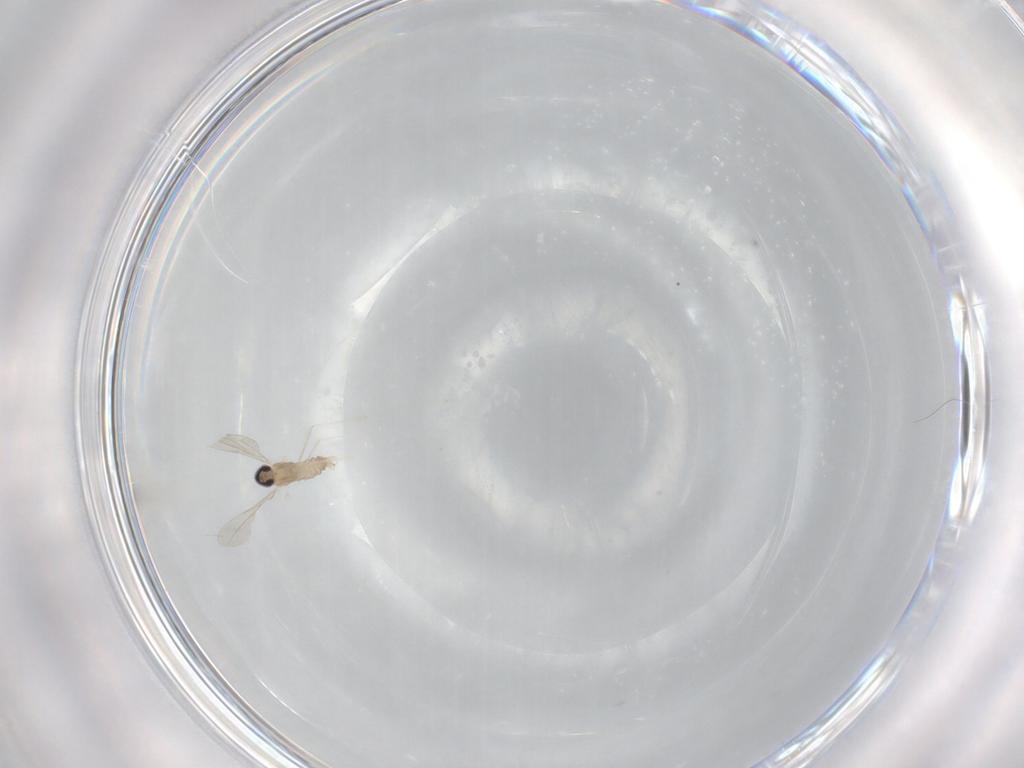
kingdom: Animalia
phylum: Arthropoda
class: Insecta
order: Diptera
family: Cecidomyiidae
